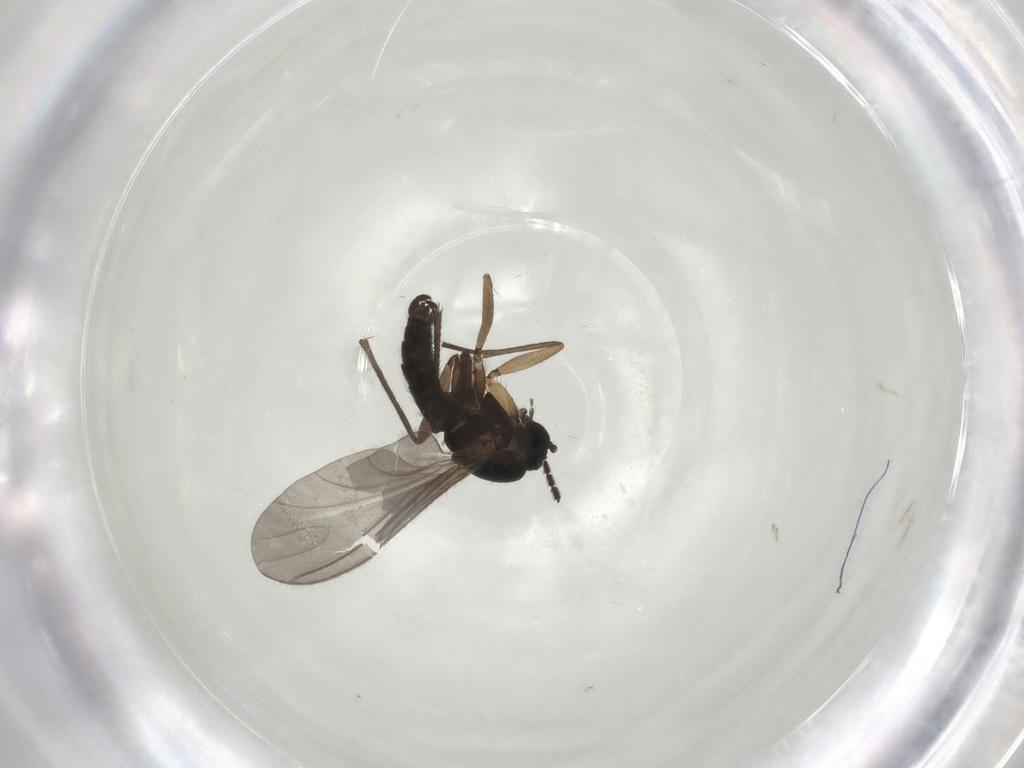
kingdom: Animalia
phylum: Arthropoda
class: Insecta
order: Diptera
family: Sciaridae
